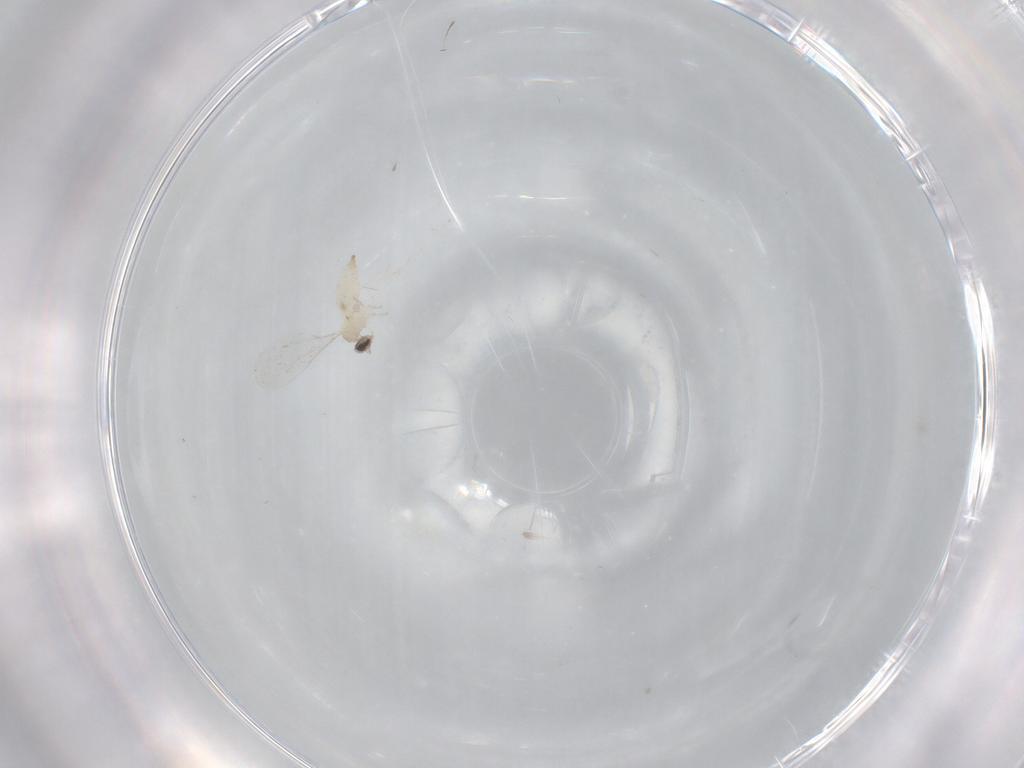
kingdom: Animalia
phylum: Arthropoda
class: Insecta
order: Diptera
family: Cecidomyiidae
